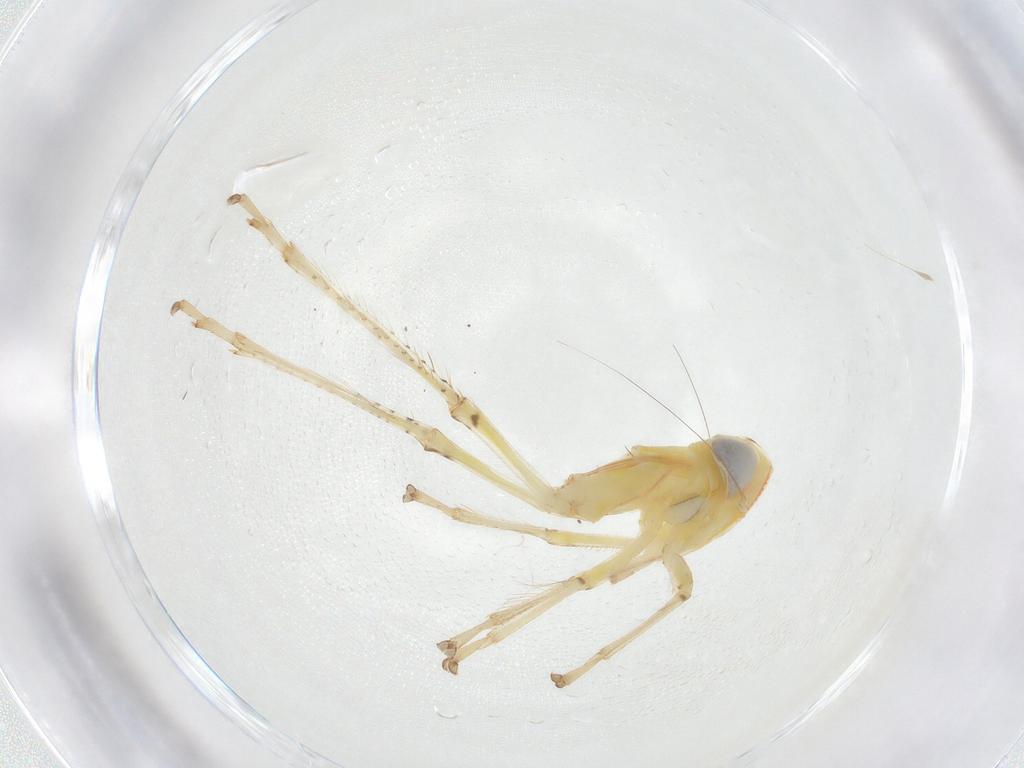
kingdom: Animalia
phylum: Arthropoda
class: Insecta
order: Hemiptera
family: Cicadellidae
